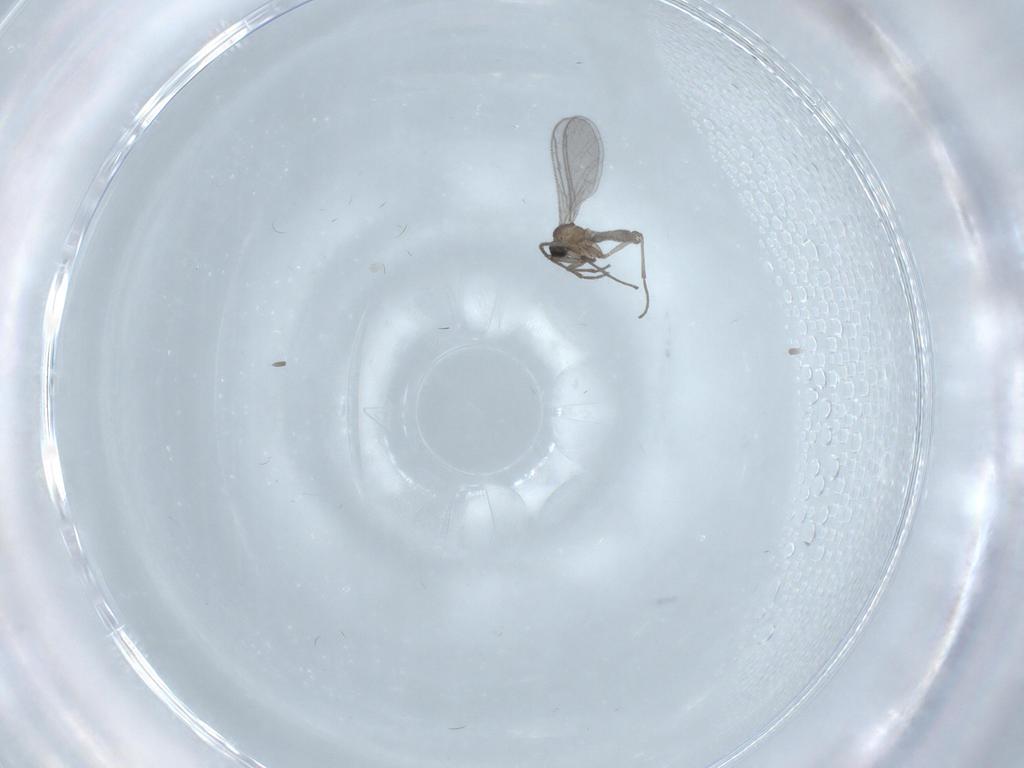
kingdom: Animalia
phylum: Arthropoda
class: Insecta
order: Diptera
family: Sciaridae
